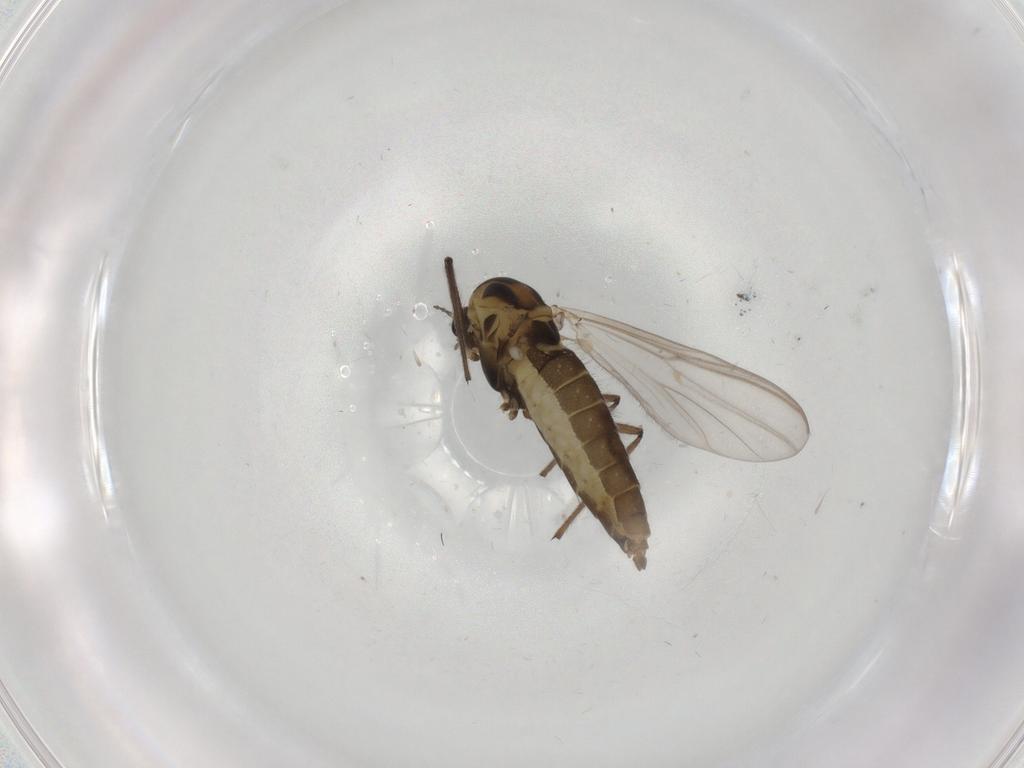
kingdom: Animalia
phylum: Arthropoda
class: Insecta
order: Diptera
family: Chironomidae
